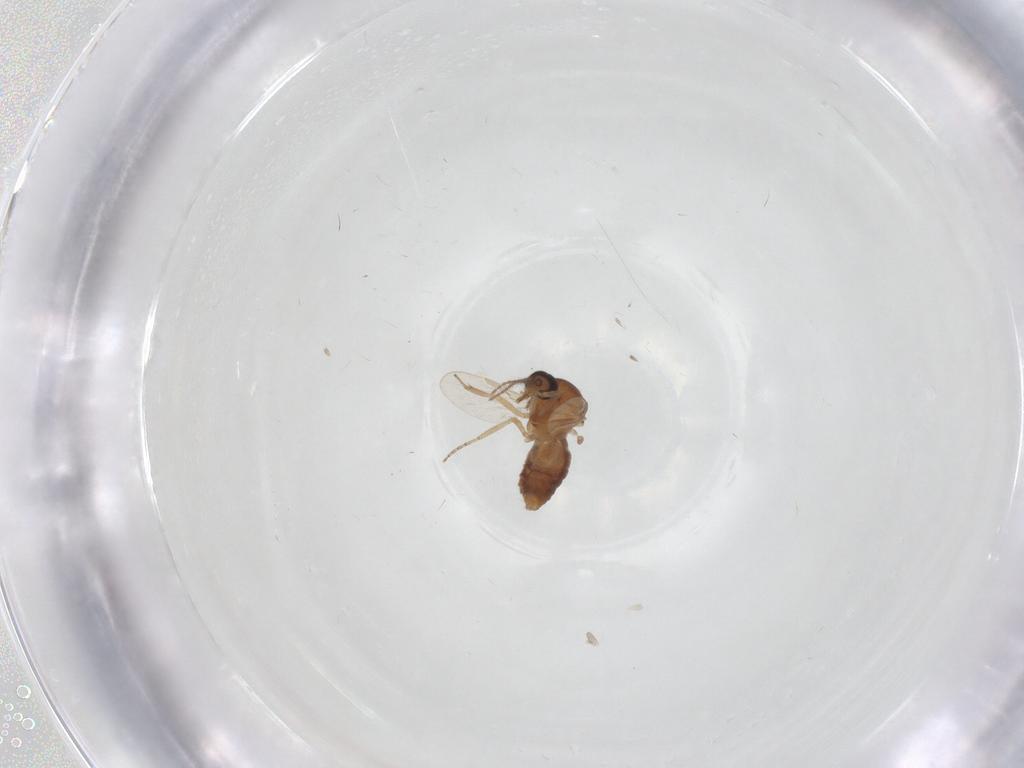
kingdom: Animalia
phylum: Arthropoda
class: Insecta
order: Diptera
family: Ceratopogonidae
